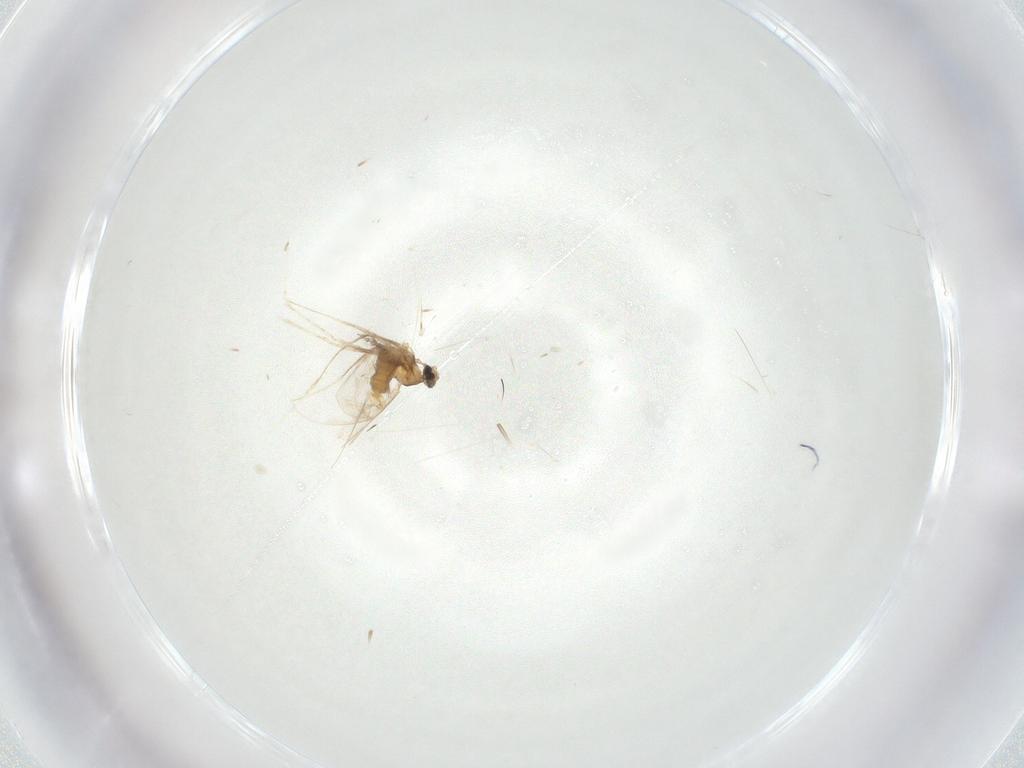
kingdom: Animalia
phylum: Arthropoda
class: Insecta
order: Diptera
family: Cecidomyiidae
